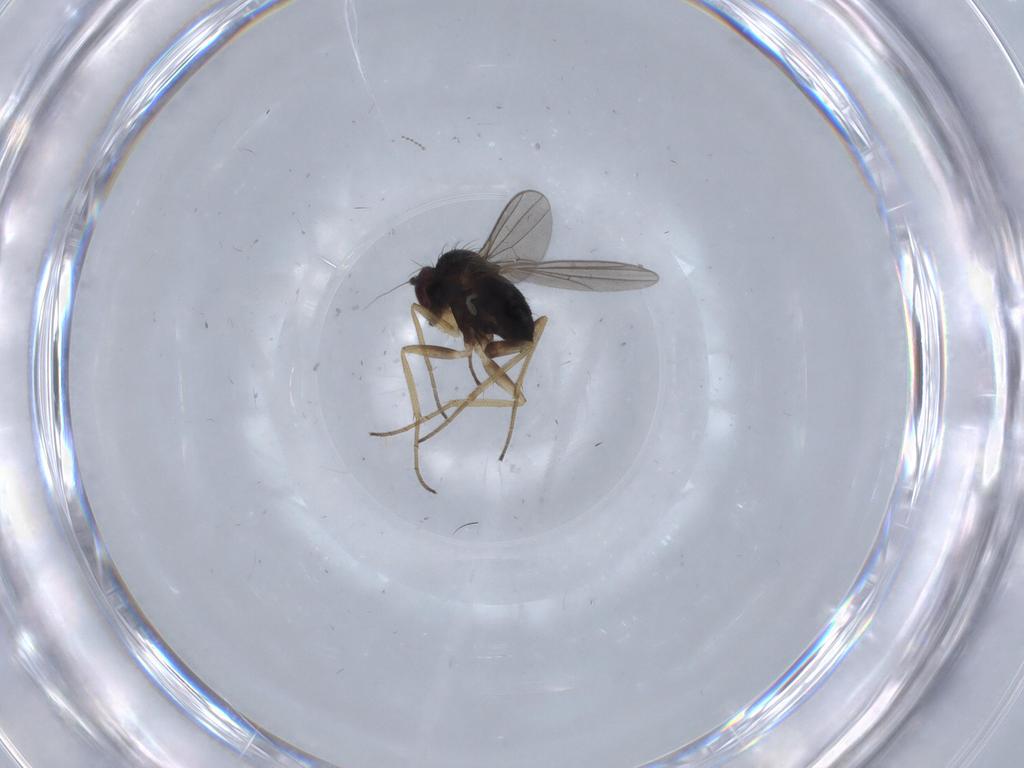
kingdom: Animalia
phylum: Arthropoda
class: Insecta
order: Diptera
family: Dolichopodidae
